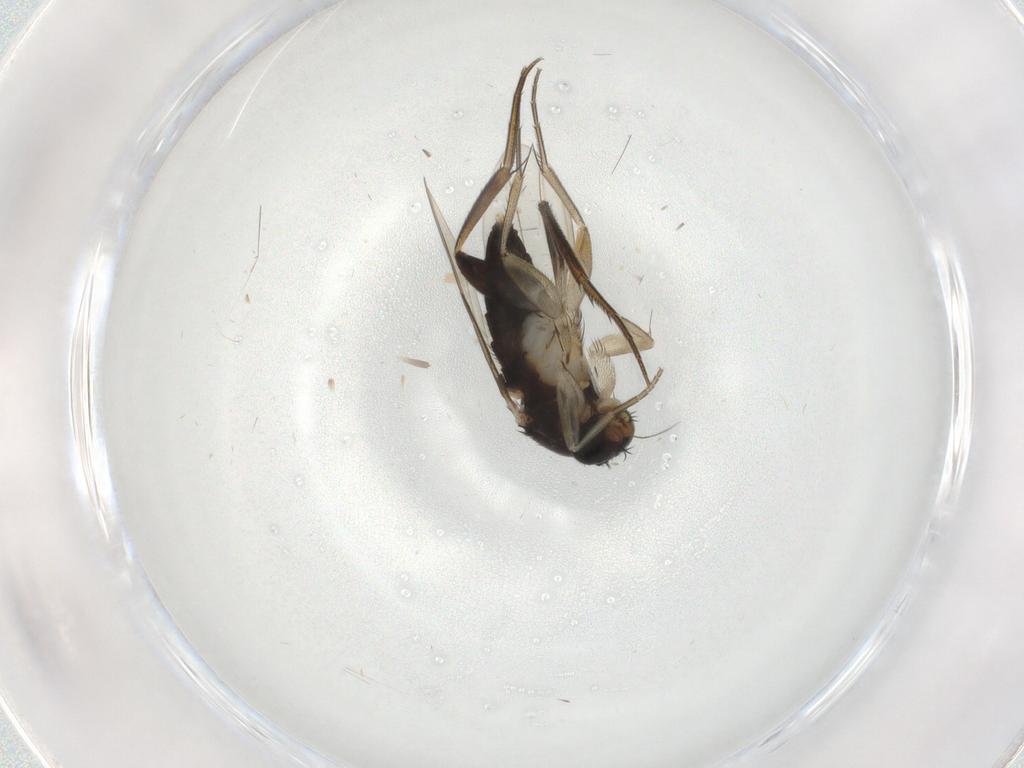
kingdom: Animalia
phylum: Arthropoda
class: Insecta
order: Diptera
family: Phoridae
